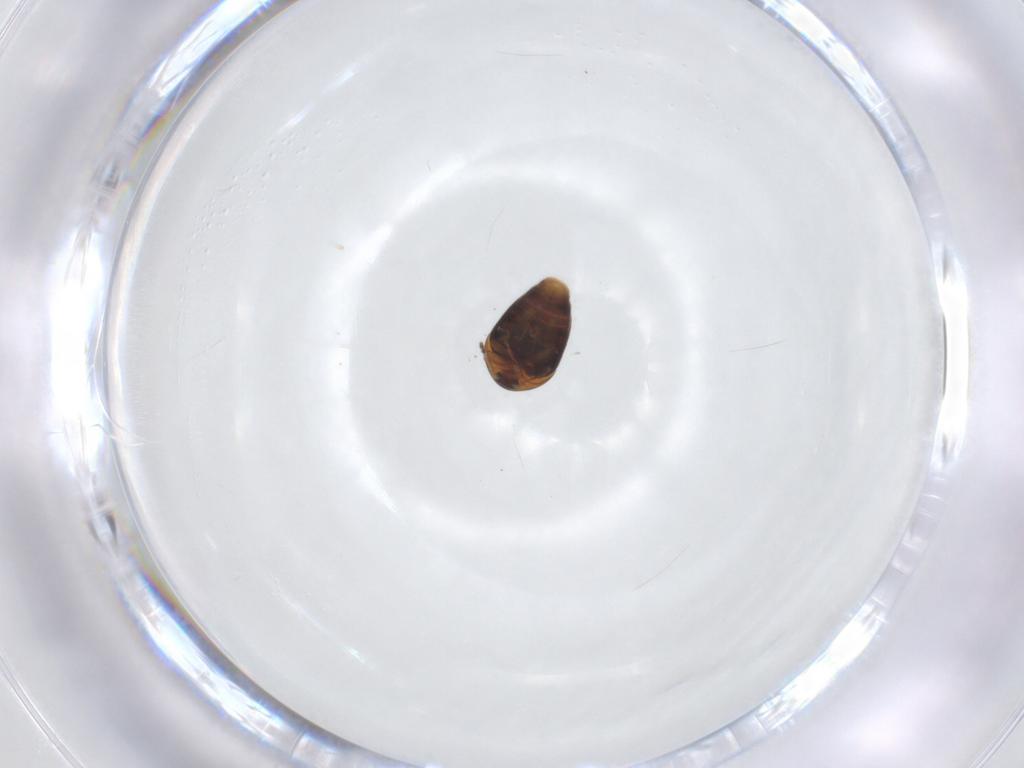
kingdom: Animalia
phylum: Arthropoda
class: Insecta
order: Coleoptera
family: Corylophidae
